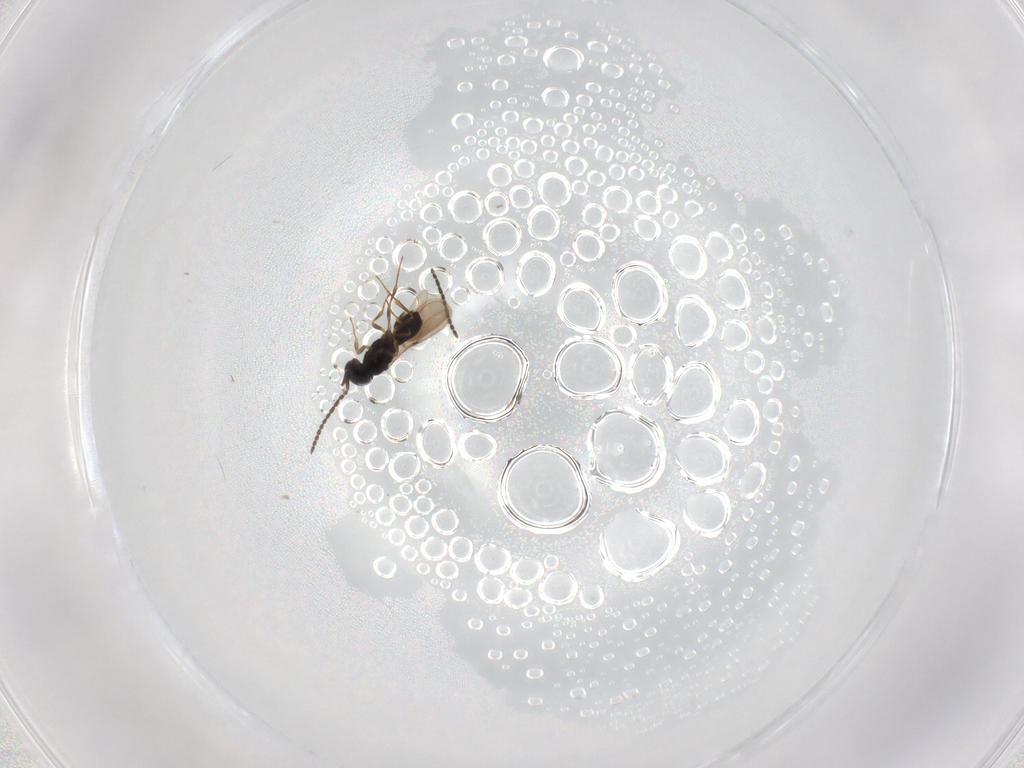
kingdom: Animalia
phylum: Arthropoda
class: Insecta
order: Hymenoptera
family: Scelionidae
